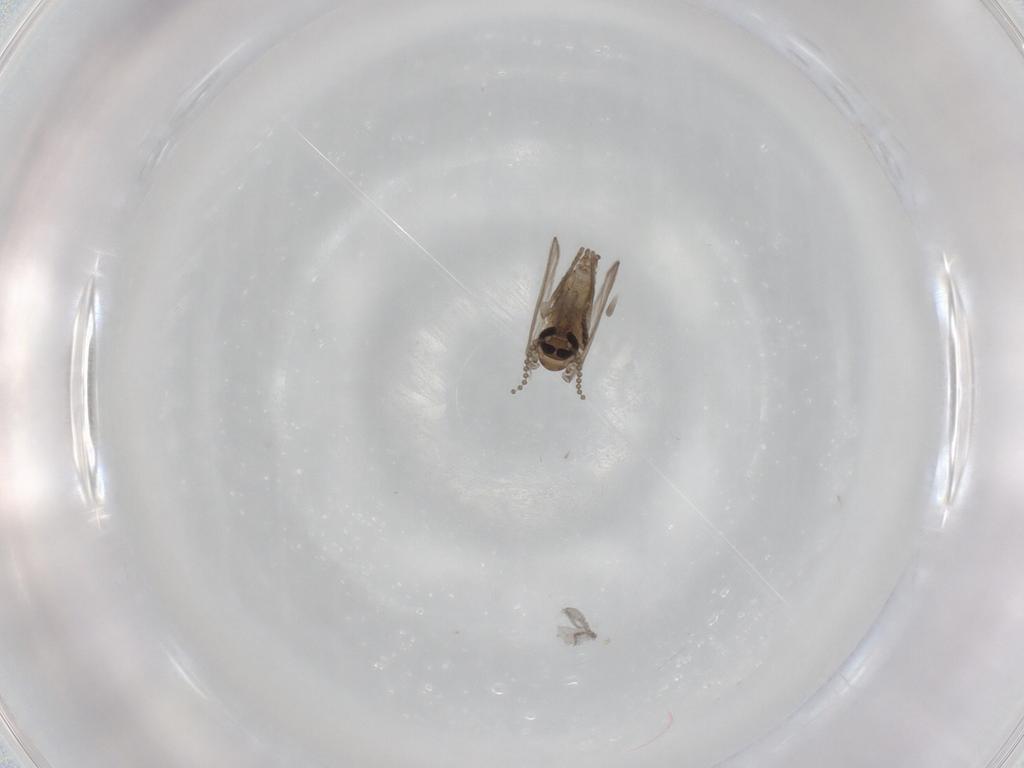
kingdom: Animalia
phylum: Arthropoda
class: Insecta
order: Diptera
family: Psychodidae
